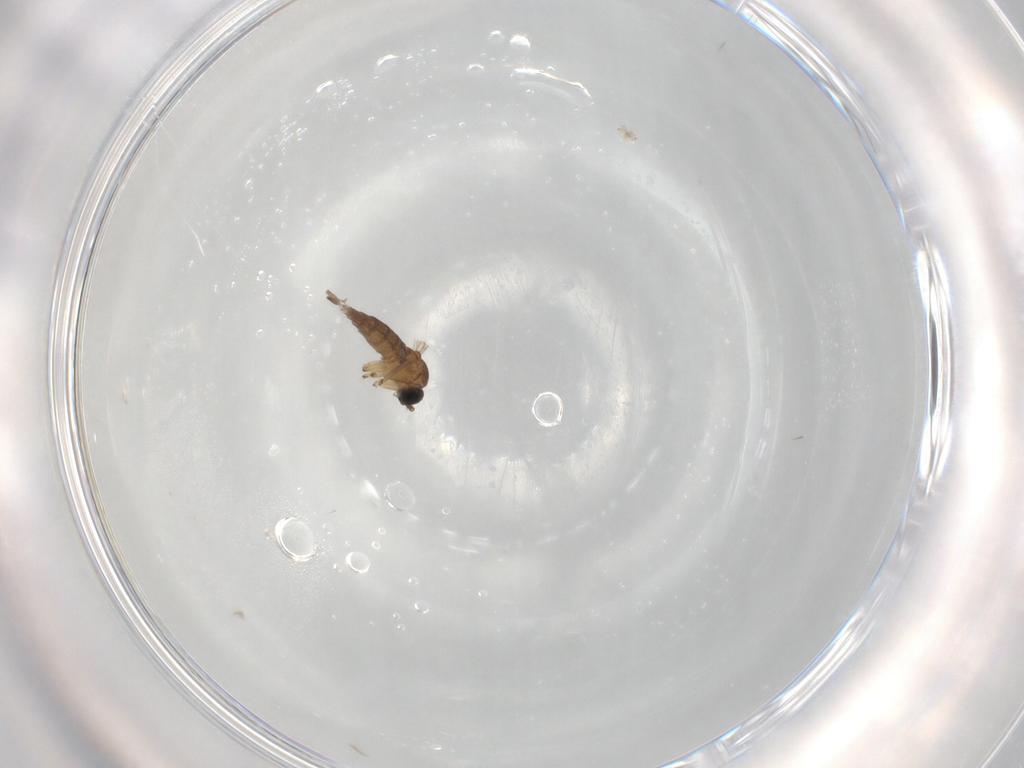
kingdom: Animalia
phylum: Arthropoda
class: Insecta
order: Diptera
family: Sciaridae
